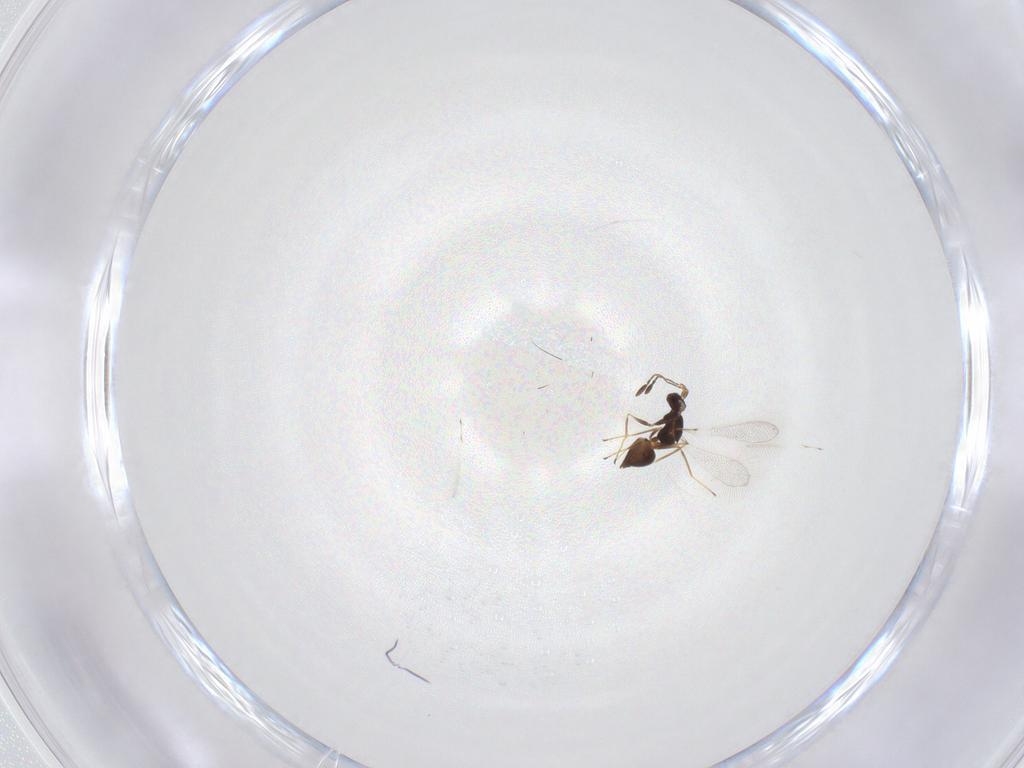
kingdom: Animalia
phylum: Arthropoda
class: Insecta
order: Hymenoptera
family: Mymaridae
